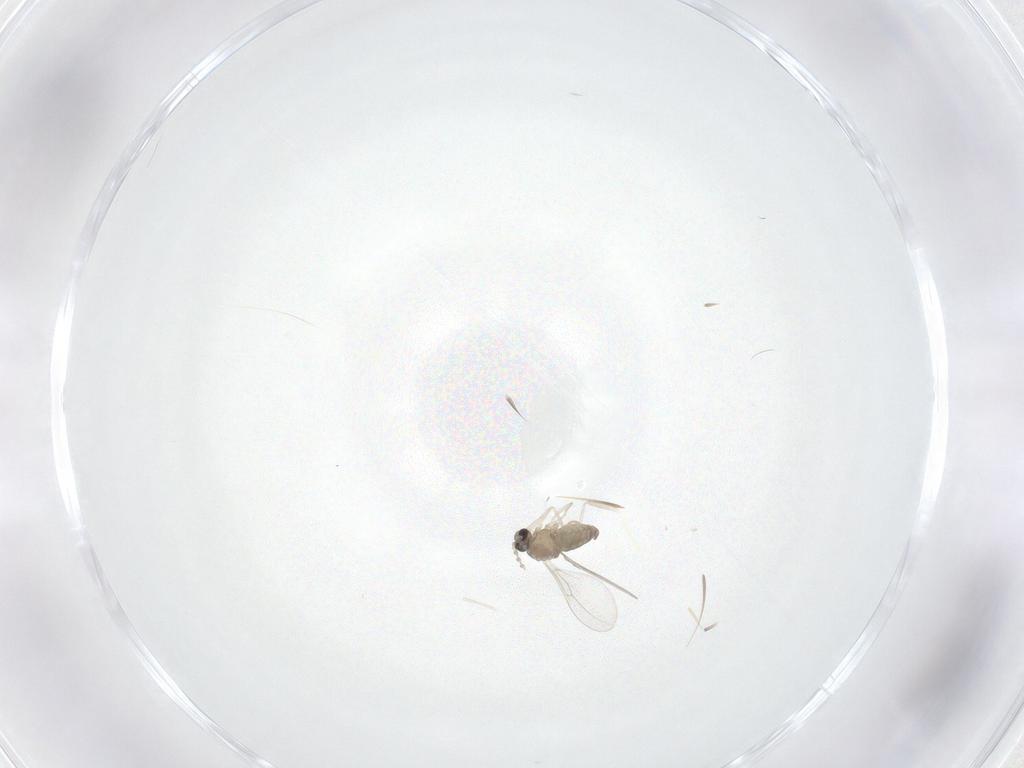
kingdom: Animalia
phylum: Arthropoda
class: Insecta
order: Diptera
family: Cecidomyiidae
